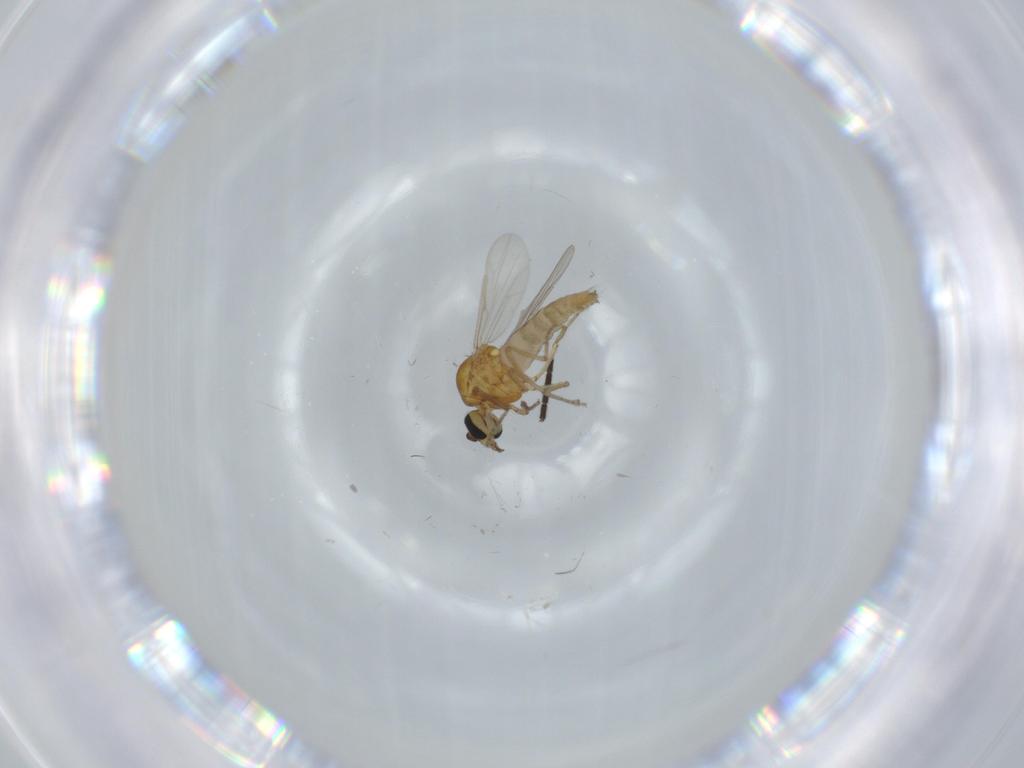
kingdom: Animalia
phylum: Arthropoda
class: Insecta
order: Diptera
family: Ceratopogonidae
